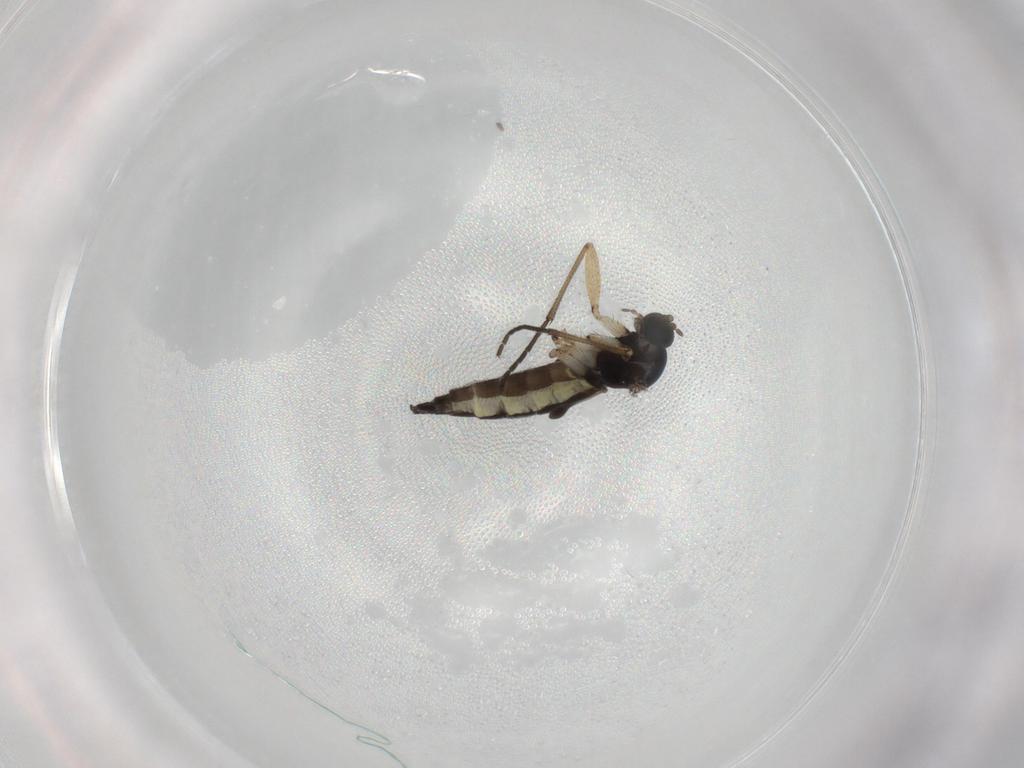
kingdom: Animalia
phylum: Arthropoda
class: Insecta
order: Diptera
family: Sciaridae
